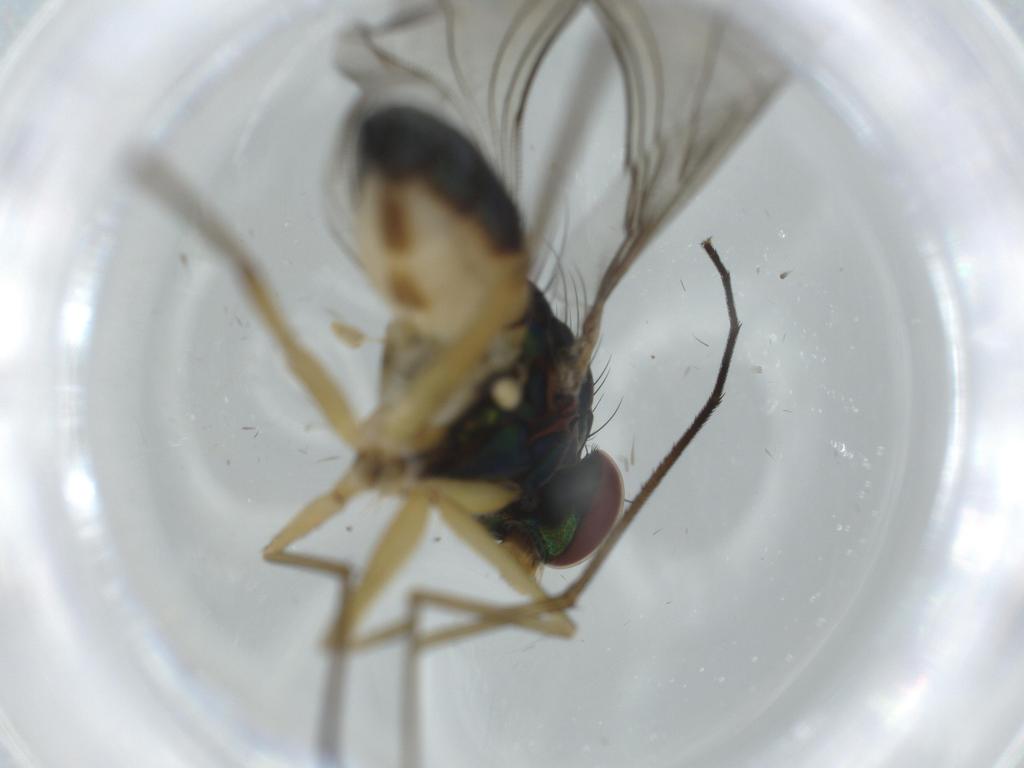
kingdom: Animalia
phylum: Arthropoda
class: Insecta
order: Diptera
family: Dolichopodidae
